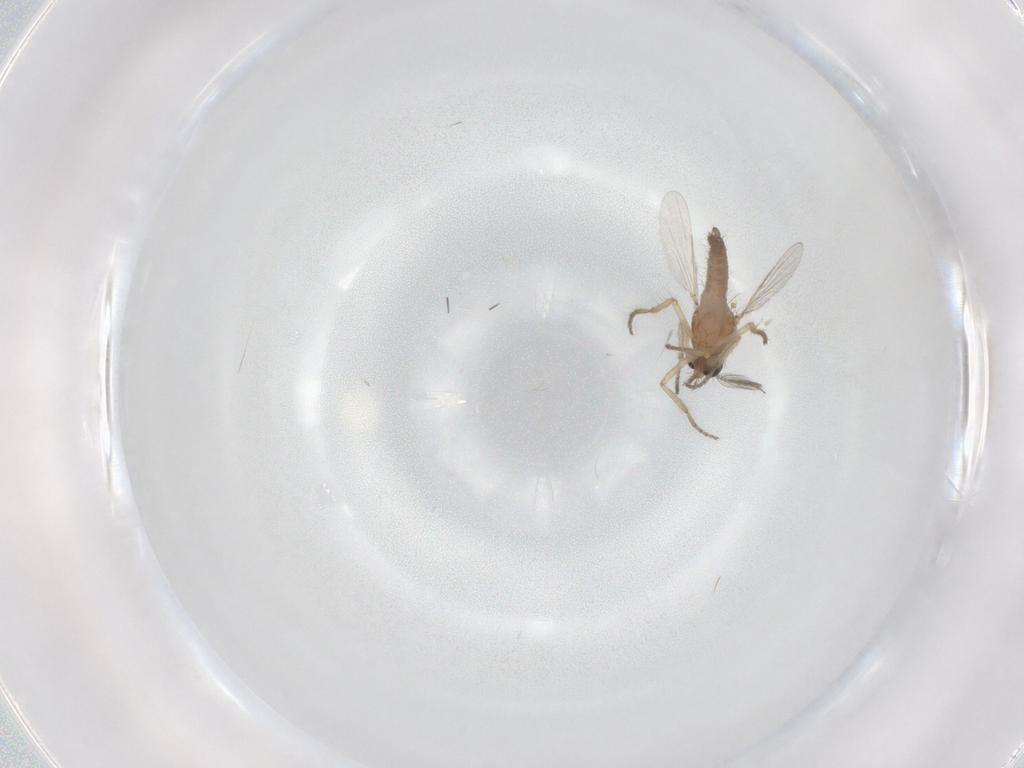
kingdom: Animalia
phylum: Arthropoda
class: Insecta
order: Diptera
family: Ceratopogonidae
